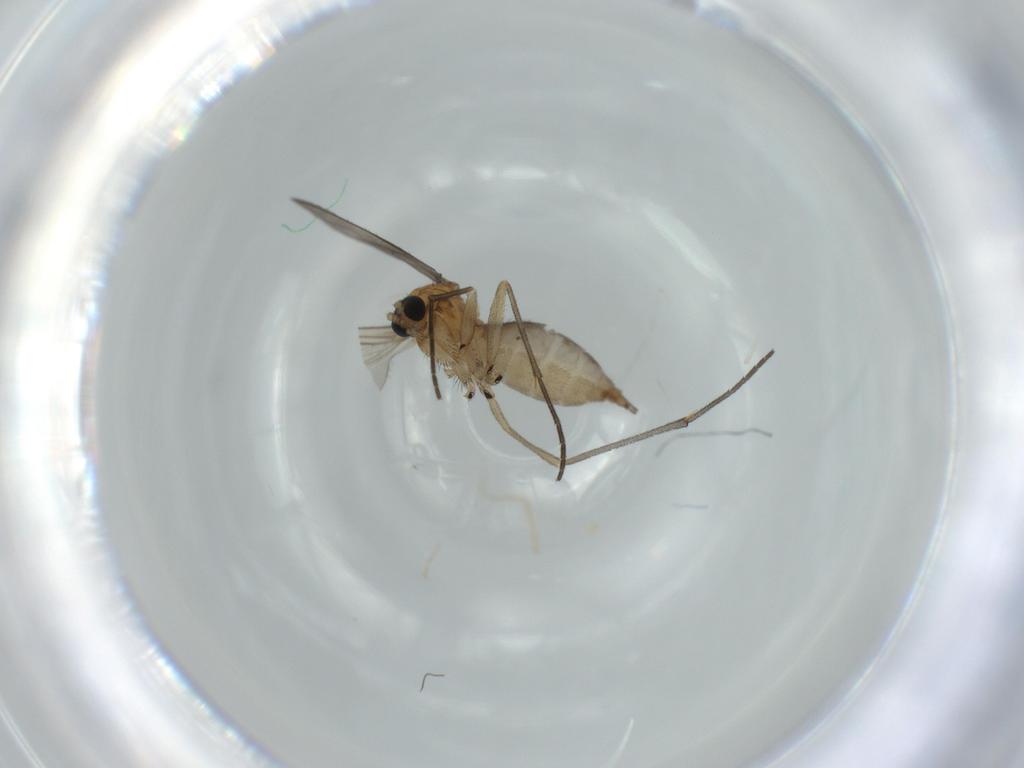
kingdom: Animalia
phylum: Arthropoda
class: Insecta
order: Diptera
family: Sciaridae
